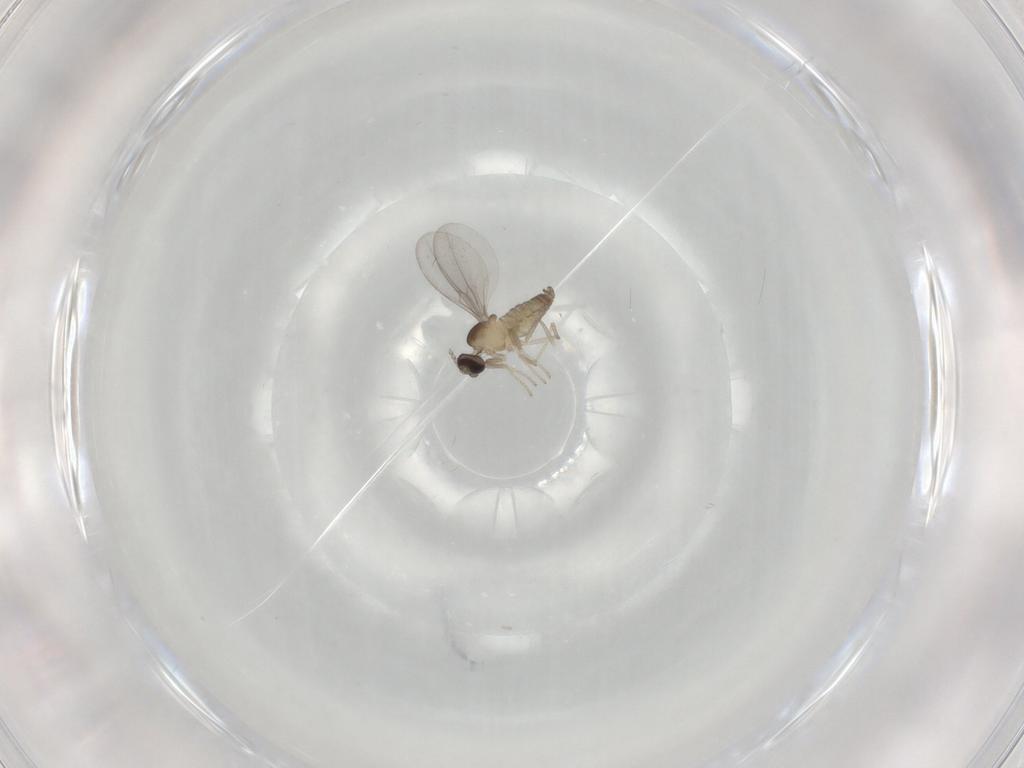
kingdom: Animalia
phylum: Arthropoda
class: Insecta
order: Diptera
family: Cecidomyiidae
